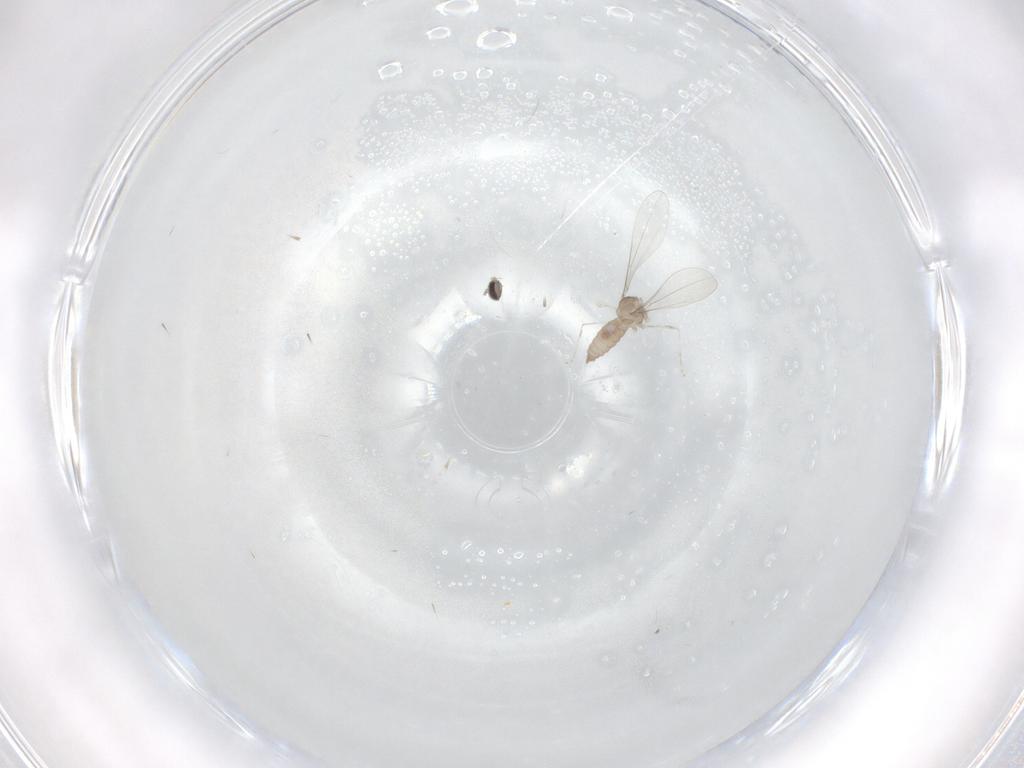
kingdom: Animalia
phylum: Arthropoda
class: Insecta
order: Diptera
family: Cecidomyiidae
